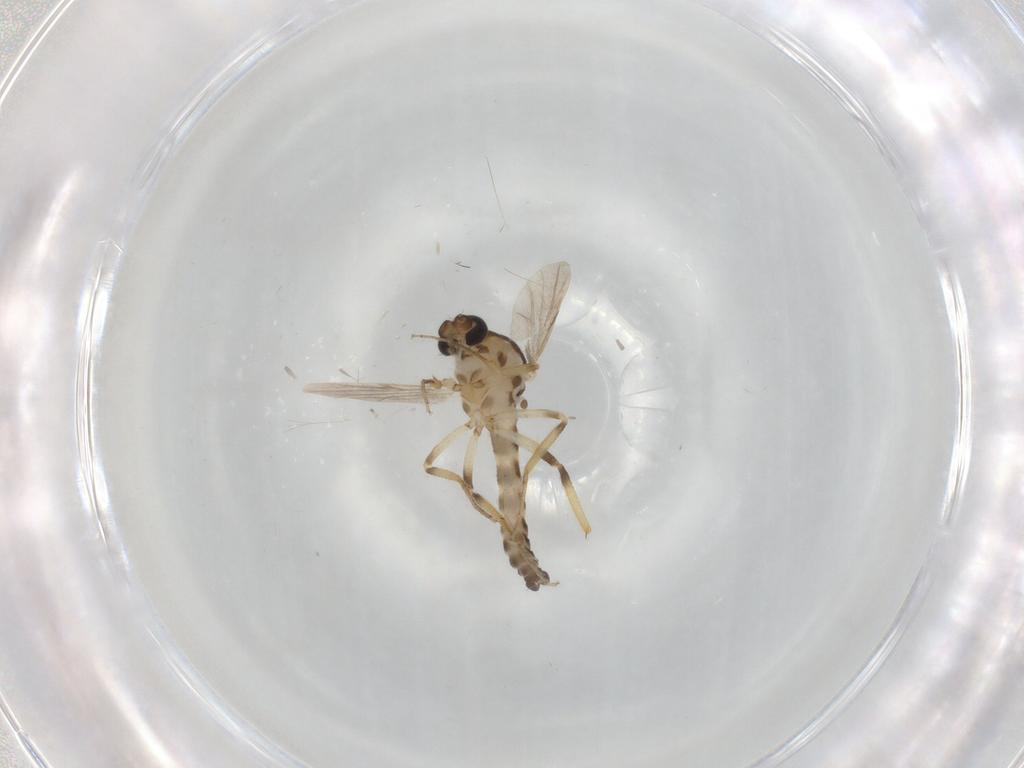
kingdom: Animalia
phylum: Arthropoda
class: Insecta
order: Diptera
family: Ceratopogonidae
